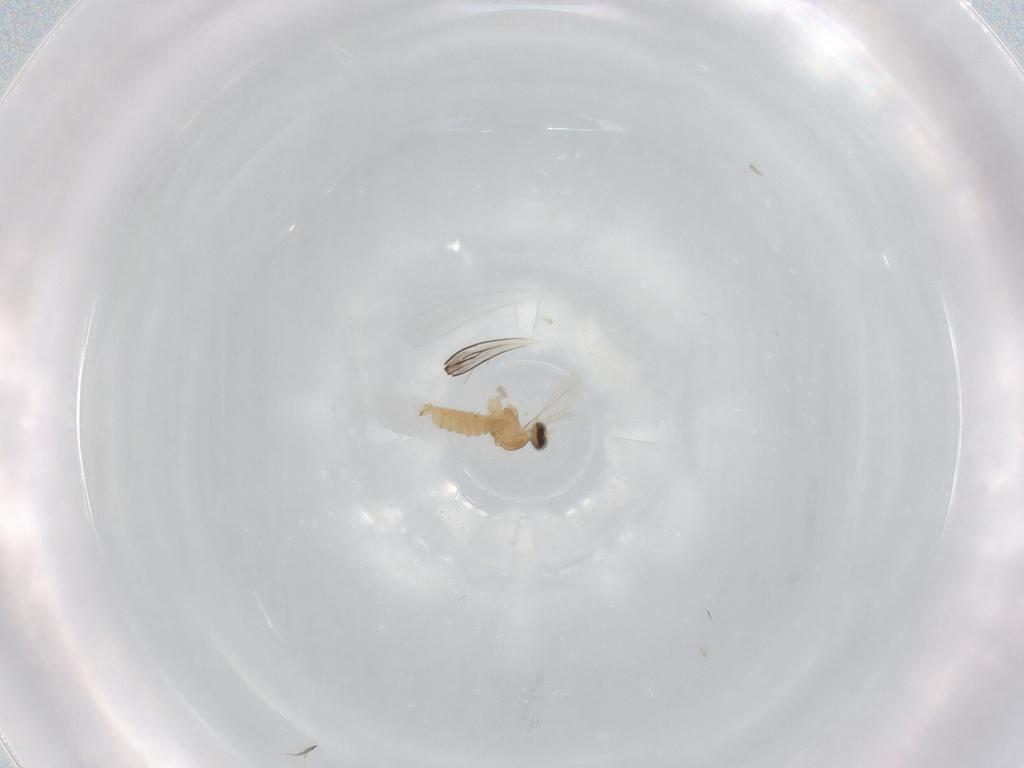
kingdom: Animalia
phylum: Arthropoda
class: Insecta
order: Diptera
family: Cecidomyiidae
